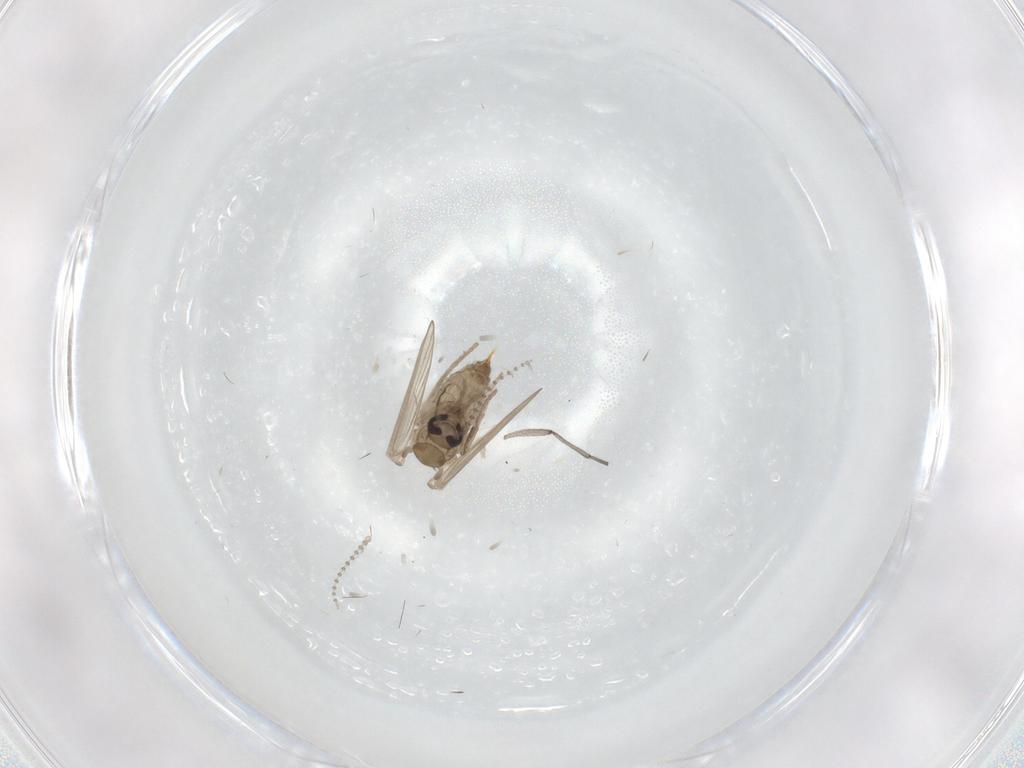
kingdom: Animalia
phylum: Arthropoda
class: Insecta
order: Diptera
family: Psychodidae
